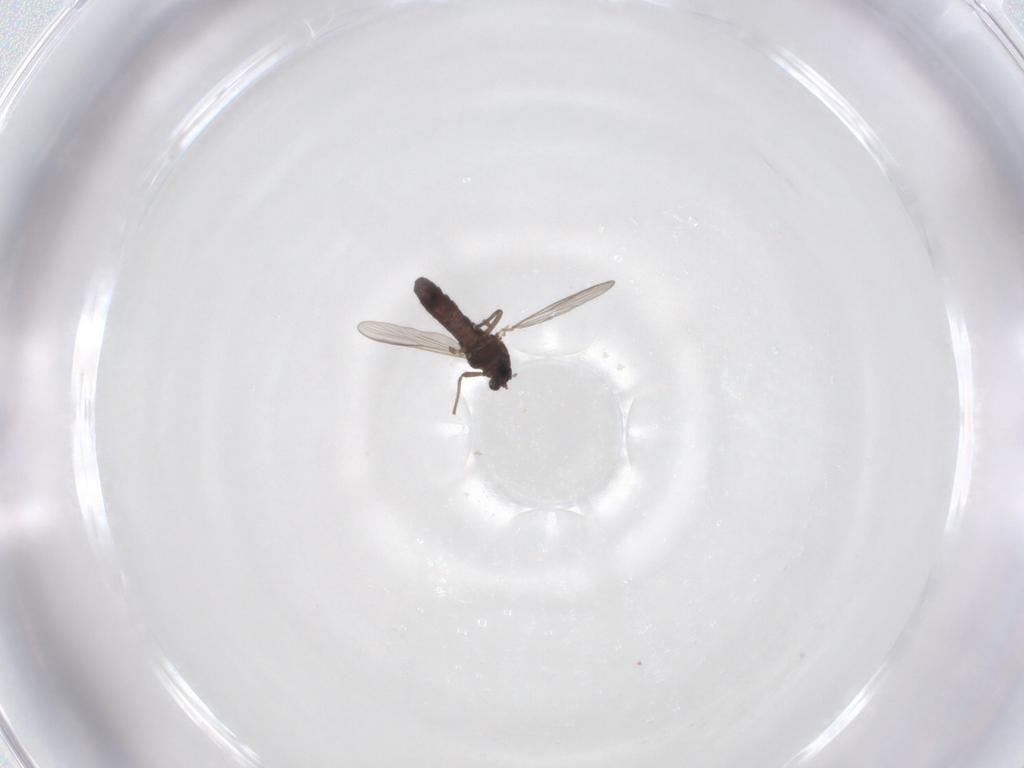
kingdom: Animalia
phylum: Arthropoda
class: Insecta
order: Diptera
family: Chironomidae
